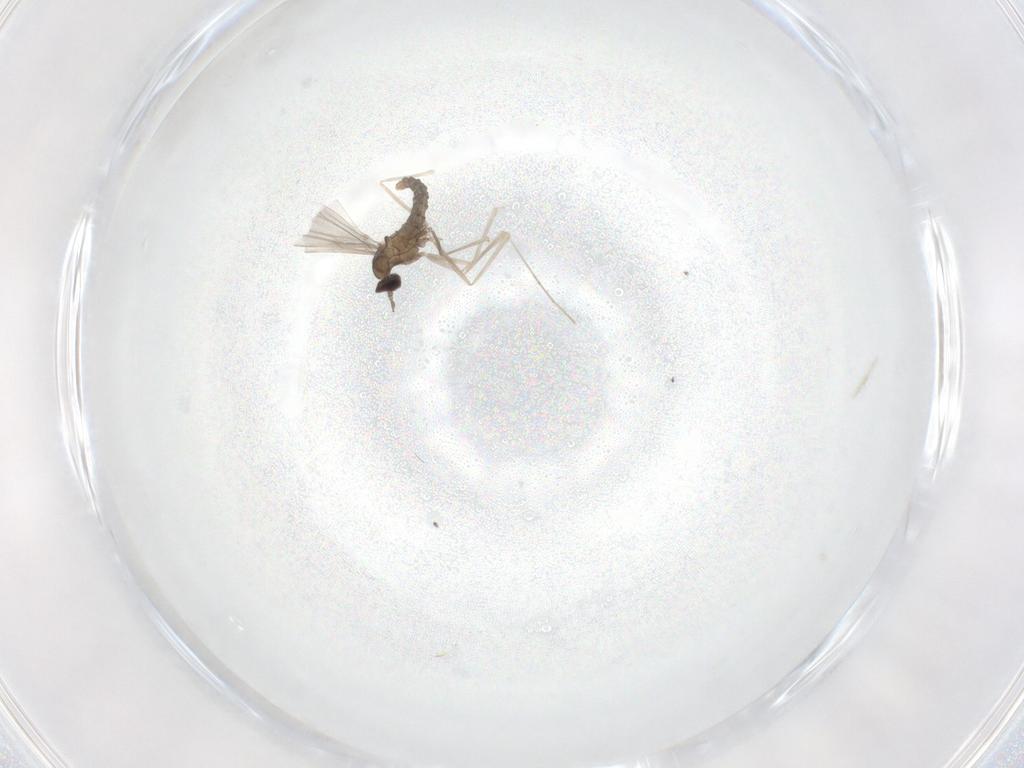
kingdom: Animalia
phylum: Arthropoda
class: Insecta
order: Diptera
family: Cecidomyiidae
